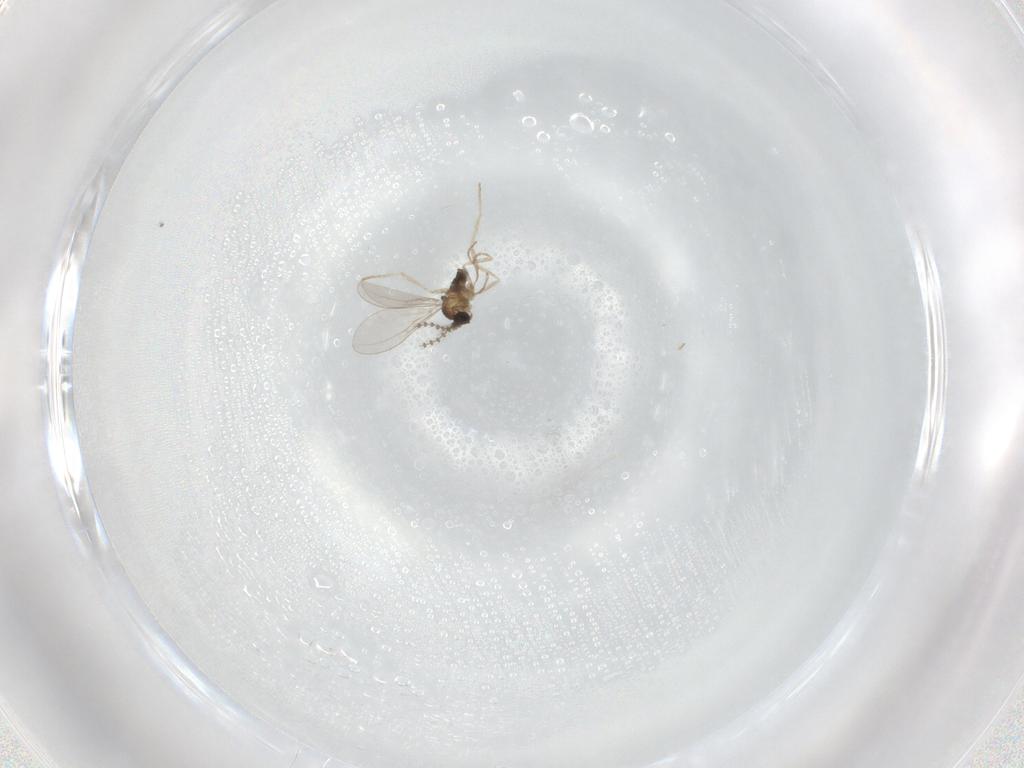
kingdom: Animalia
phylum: Arthropoda
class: Insecta
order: Diptera
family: Cecidomyiidae
